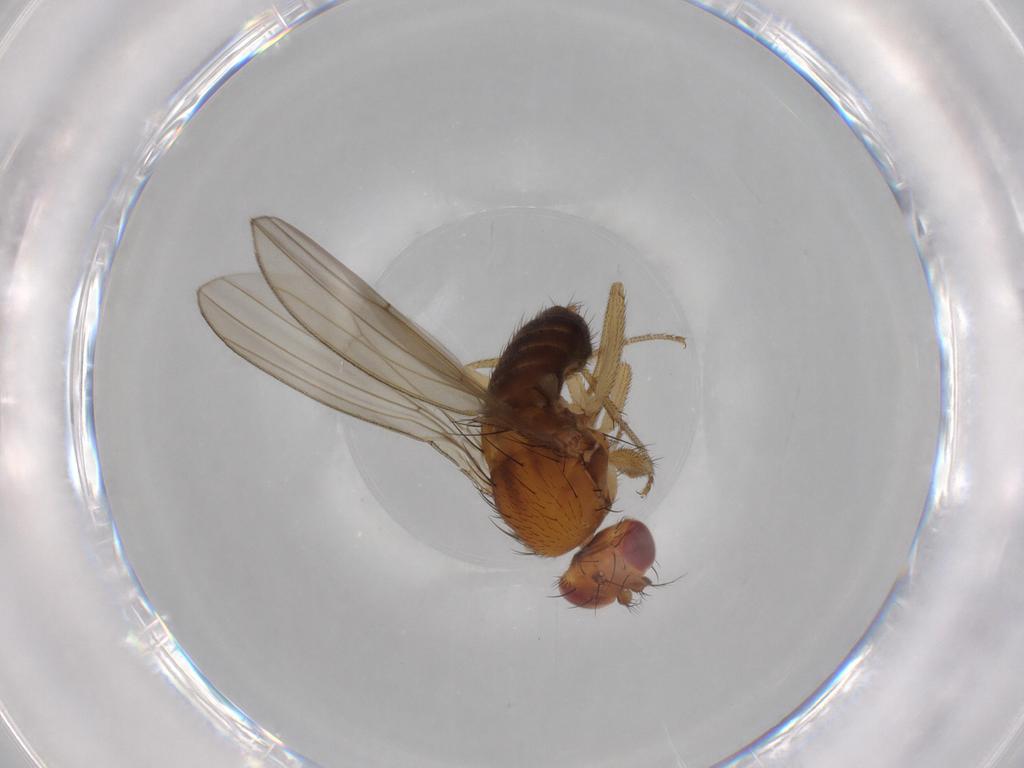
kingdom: Animalia
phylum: Arthropoda
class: Insecta
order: Diptera
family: Drosophilidae
